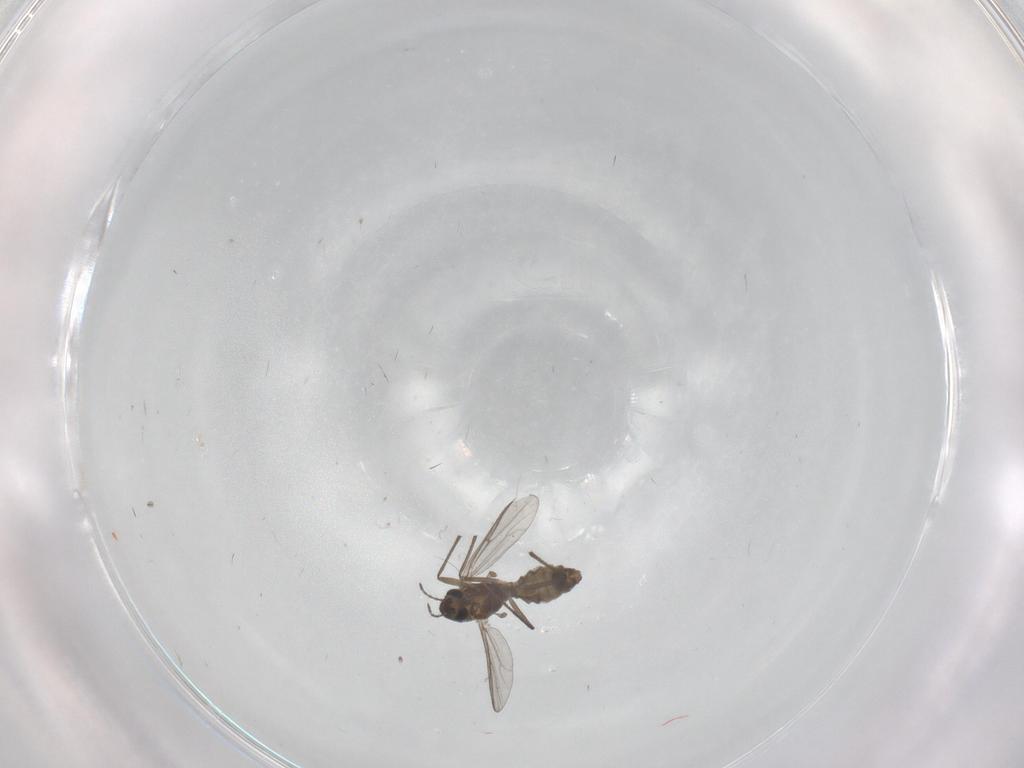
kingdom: Animalia
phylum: Arthropoda
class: Insecta
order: Diptera
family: Chironomidae
